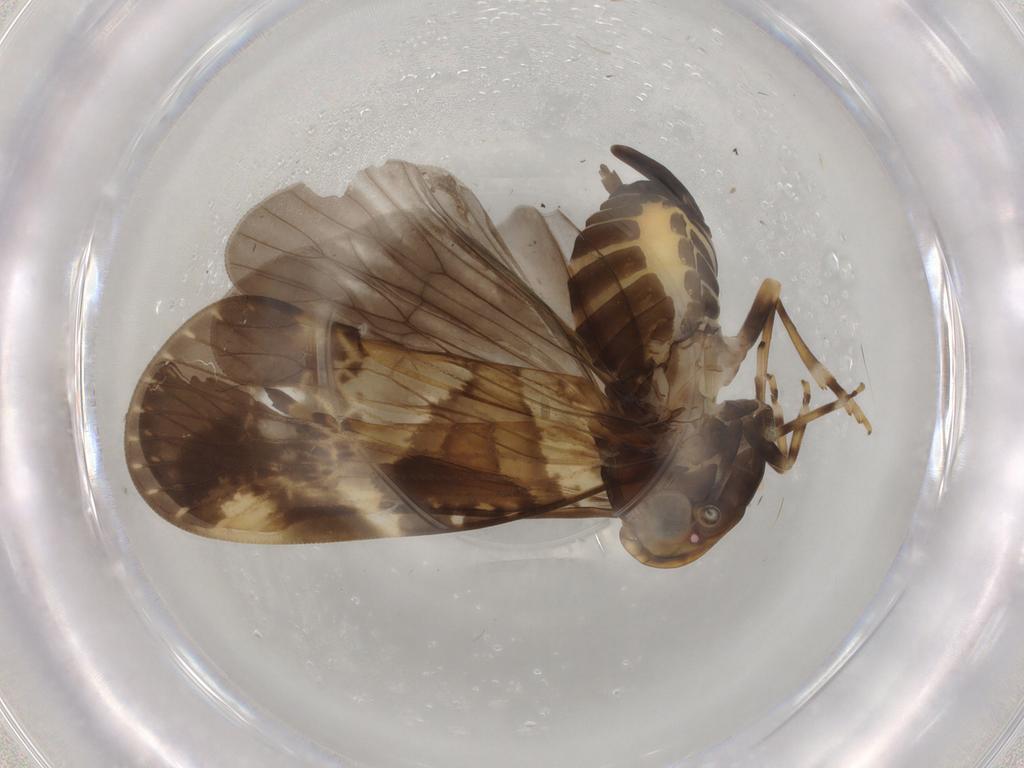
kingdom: Animalia
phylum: Arthropoda
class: Insecta
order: Hemiptera
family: Cixiidae
